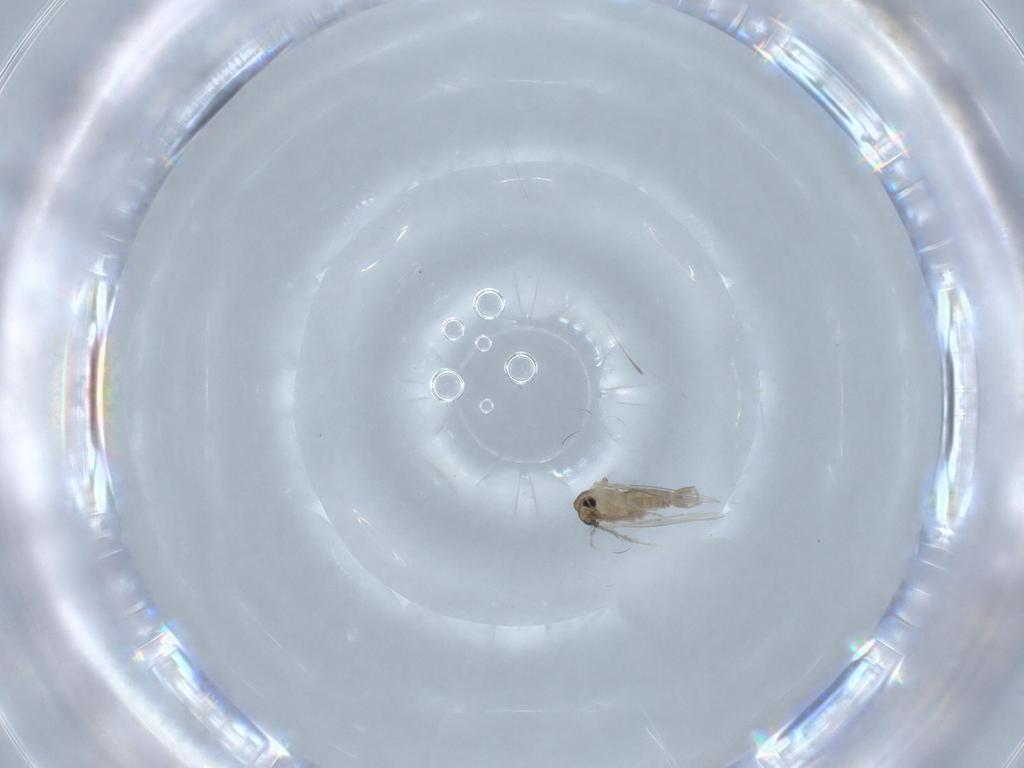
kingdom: Animalia
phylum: Arthropoda
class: Insecta
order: Diptera
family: Psychodidae
